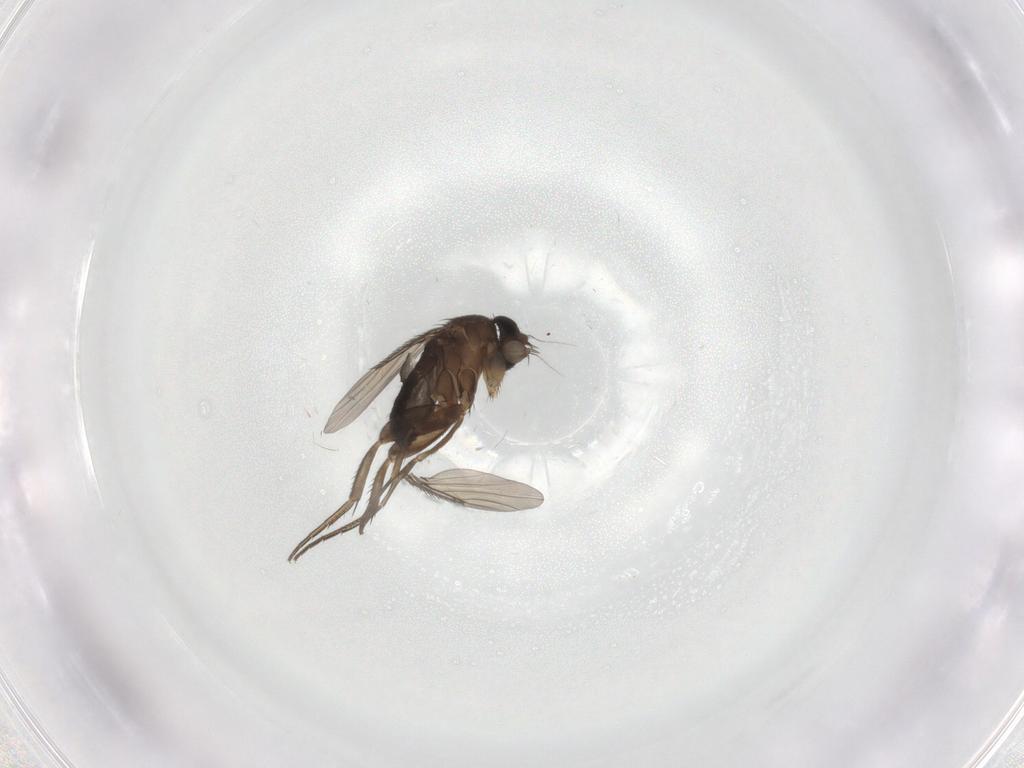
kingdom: Animalia
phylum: Arthropoda
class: Insecta
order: Diptera
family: Phoridae
